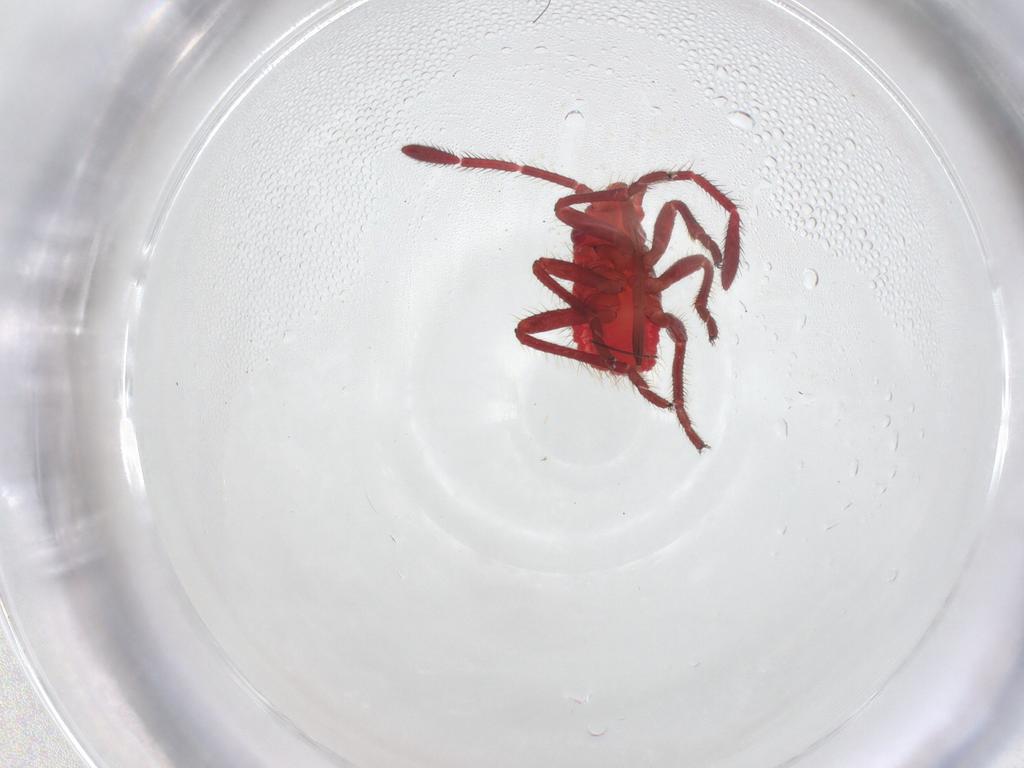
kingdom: Animalia
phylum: Arthropoda
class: Insecta
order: Hemiptera
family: Rhopalidae
